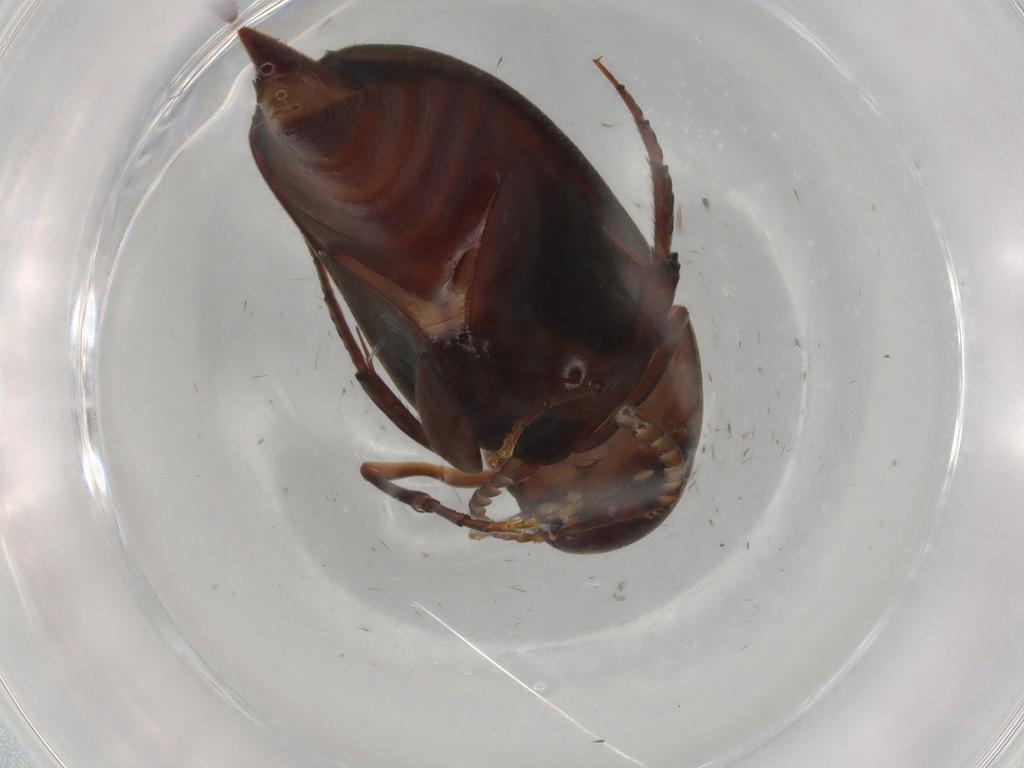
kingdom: Animalia
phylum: Arthropoda
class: Insecta
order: Coleoptera
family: Mordellidae
